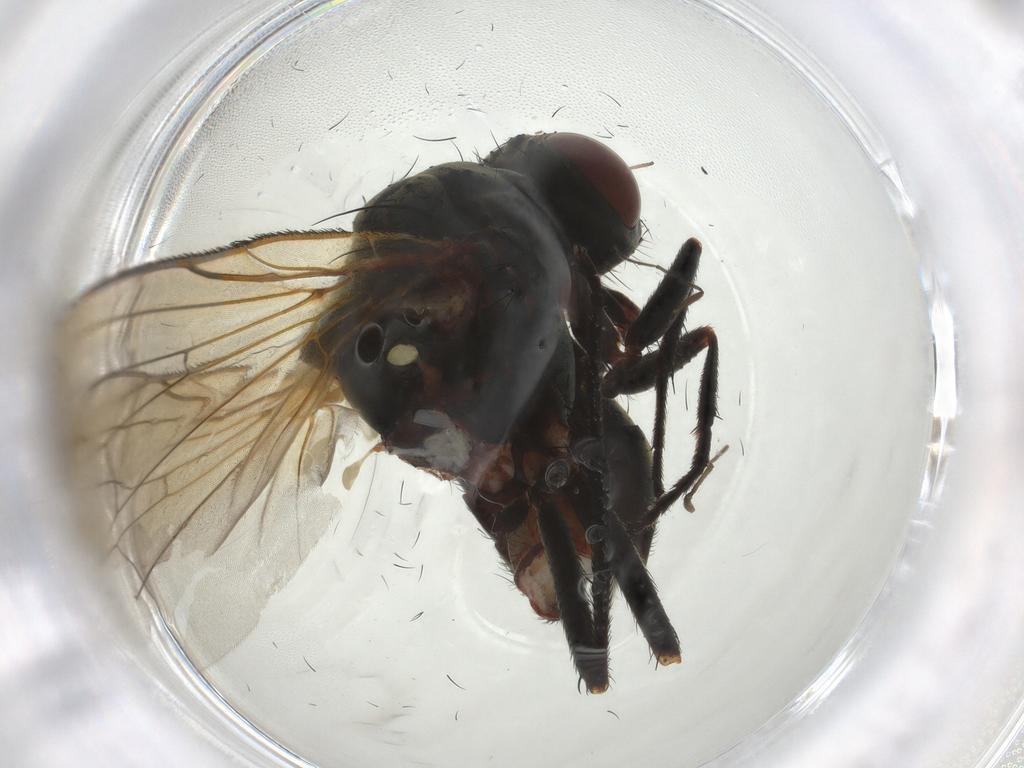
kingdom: Animalia
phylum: Arthropoda
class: Insecta
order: Diptera
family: Anthomyiidae
